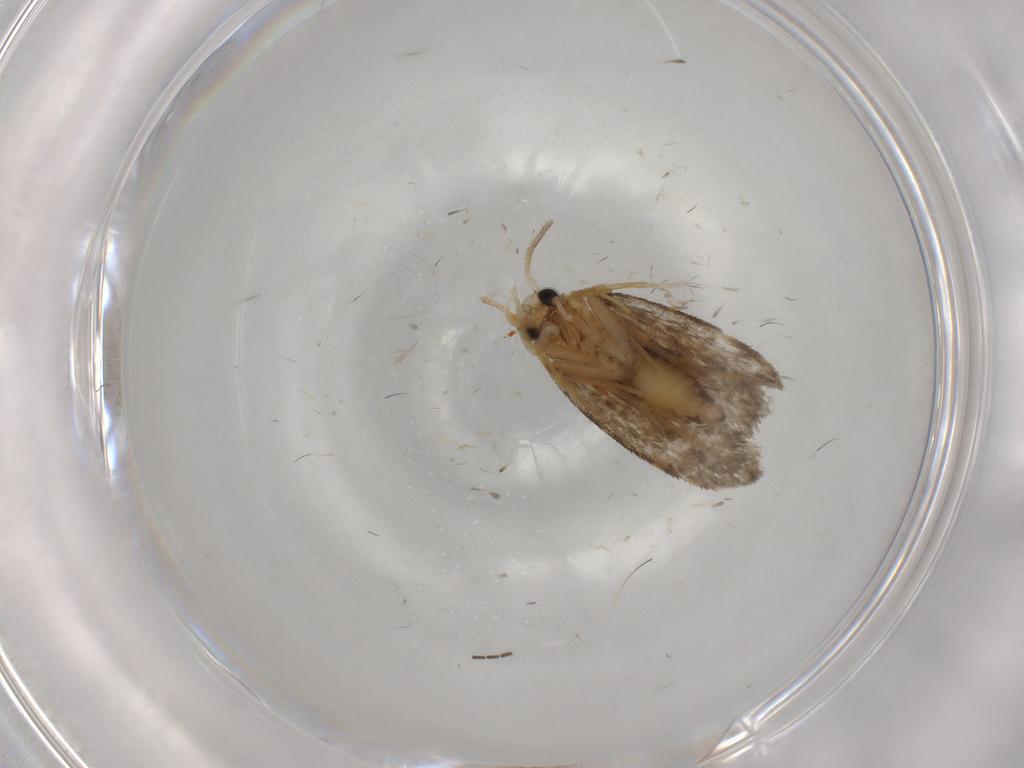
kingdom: Animalia
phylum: Arthropoda
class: Insecta
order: Lepidoptera
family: Psychidae
